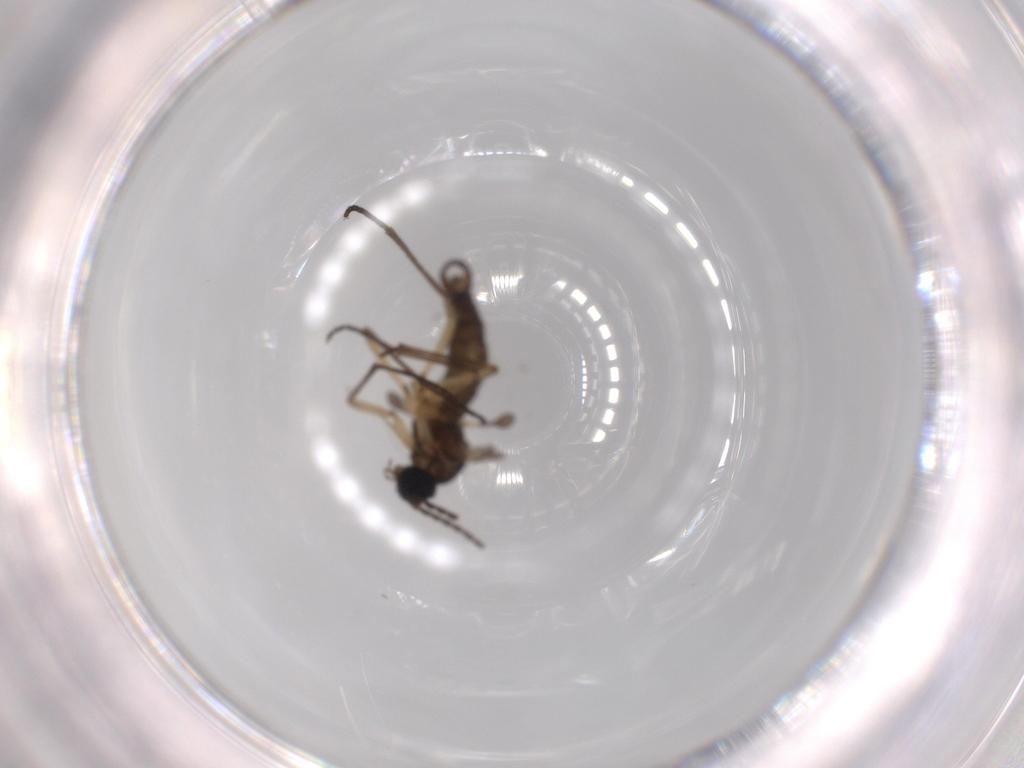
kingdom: Animalia
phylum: Arthropoda
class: Insecta
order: Diptera
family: Sciaridae
